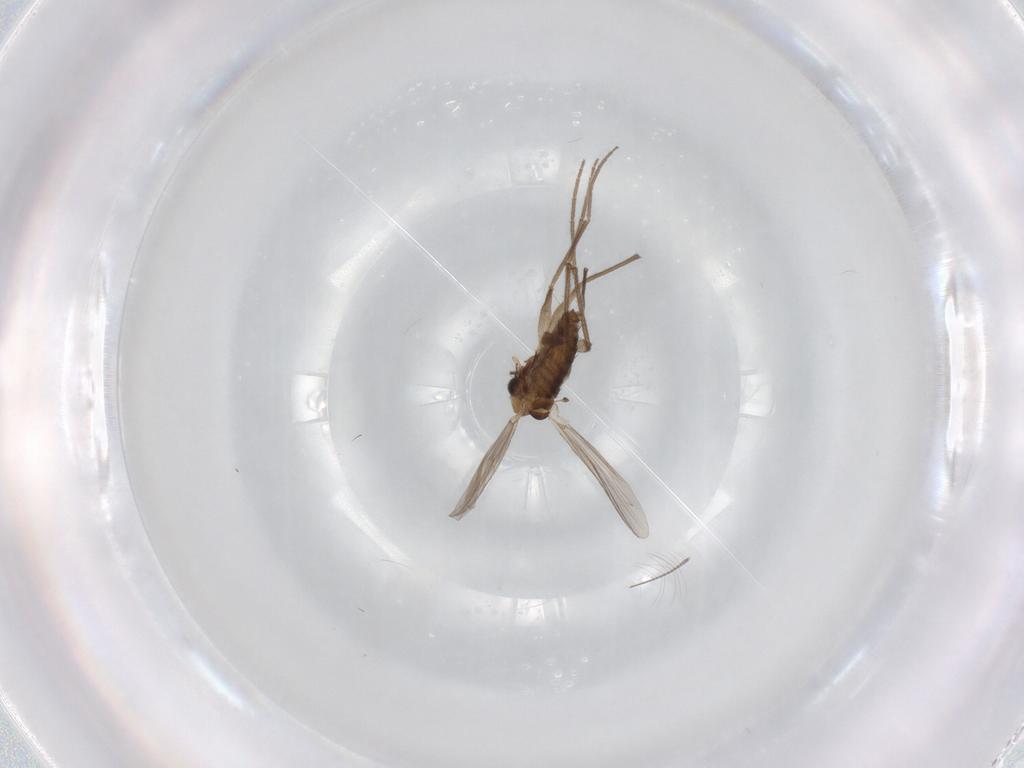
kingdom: Animalia
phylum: Arthropoda
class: Insecta
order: Diptera
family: Chironomidae
